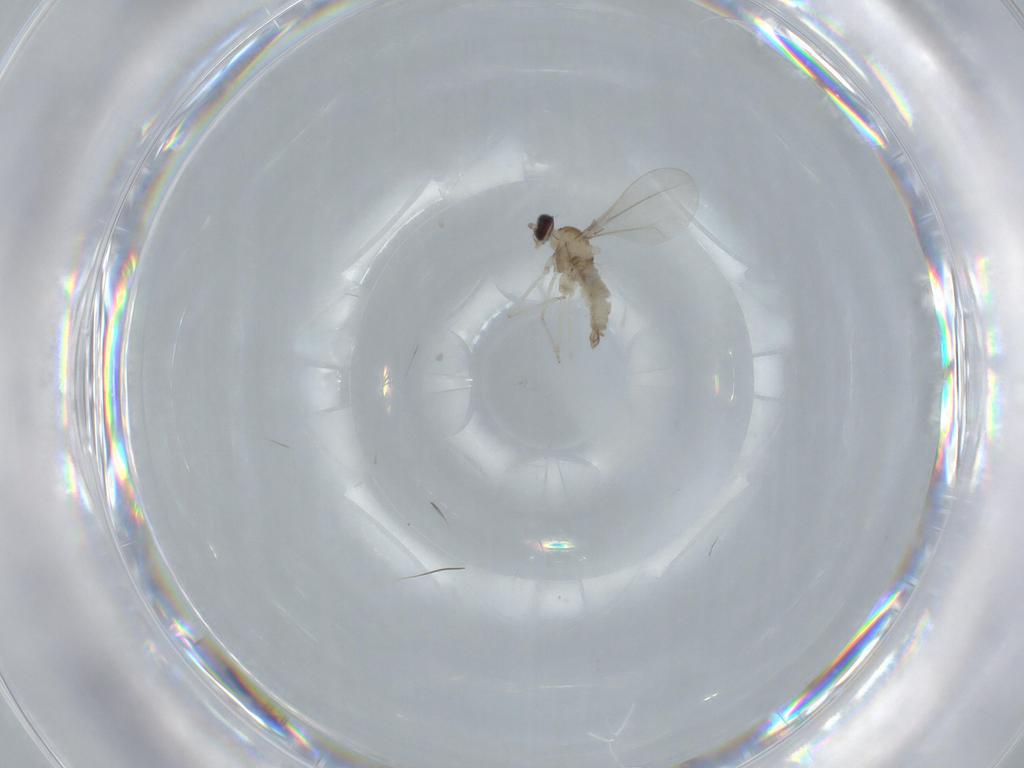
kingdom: Animalia
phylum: Arthropoda
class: Insecta
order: Diptera
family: Cecidomyiidae
